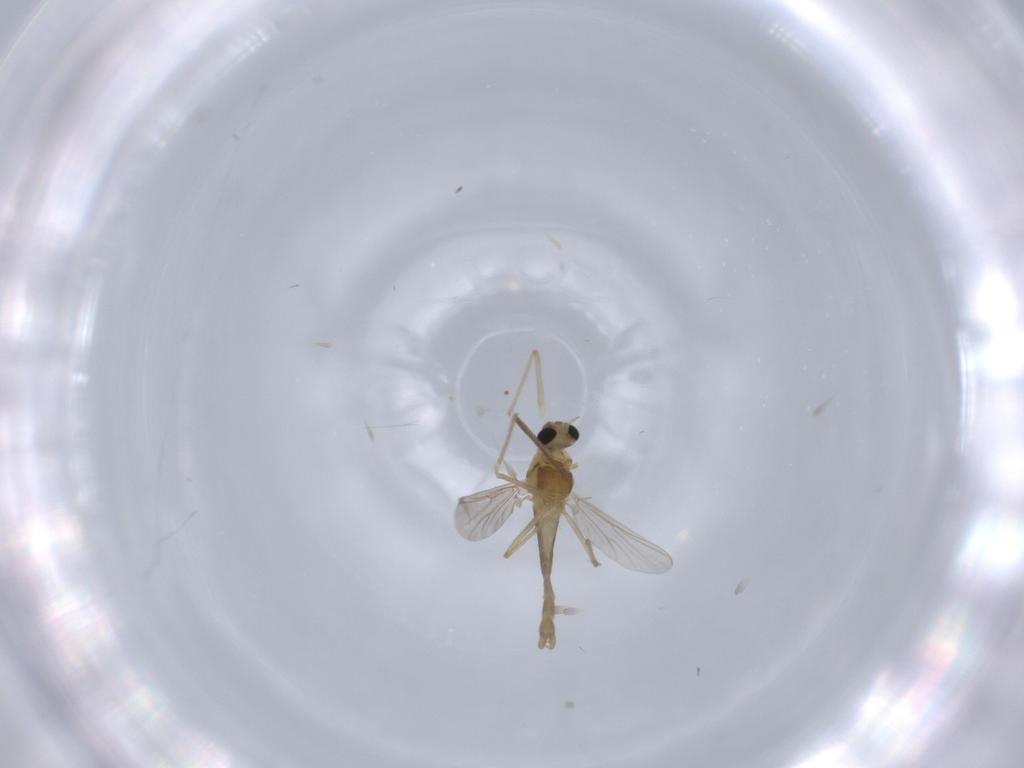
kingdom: Animalia
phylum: Arthropoda
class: Insecta
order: Diptera
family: Chironomidae
